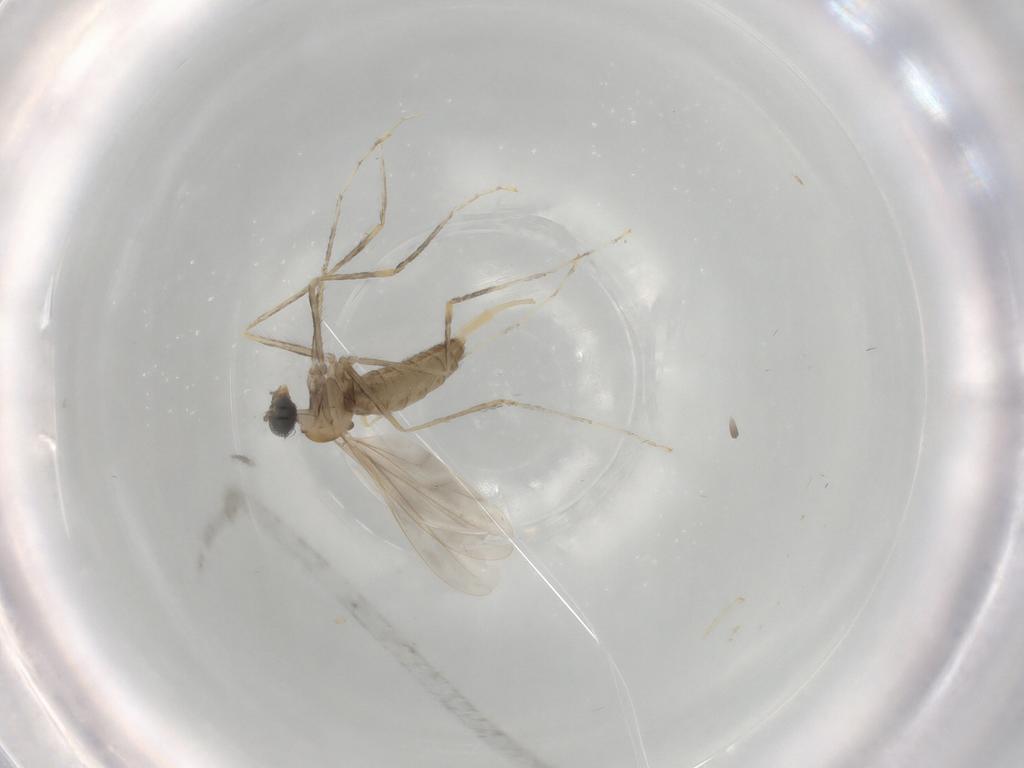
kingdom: Animalia
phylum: Arthropoda
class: Insecta
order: Diptera
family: Cecidomyiidae
